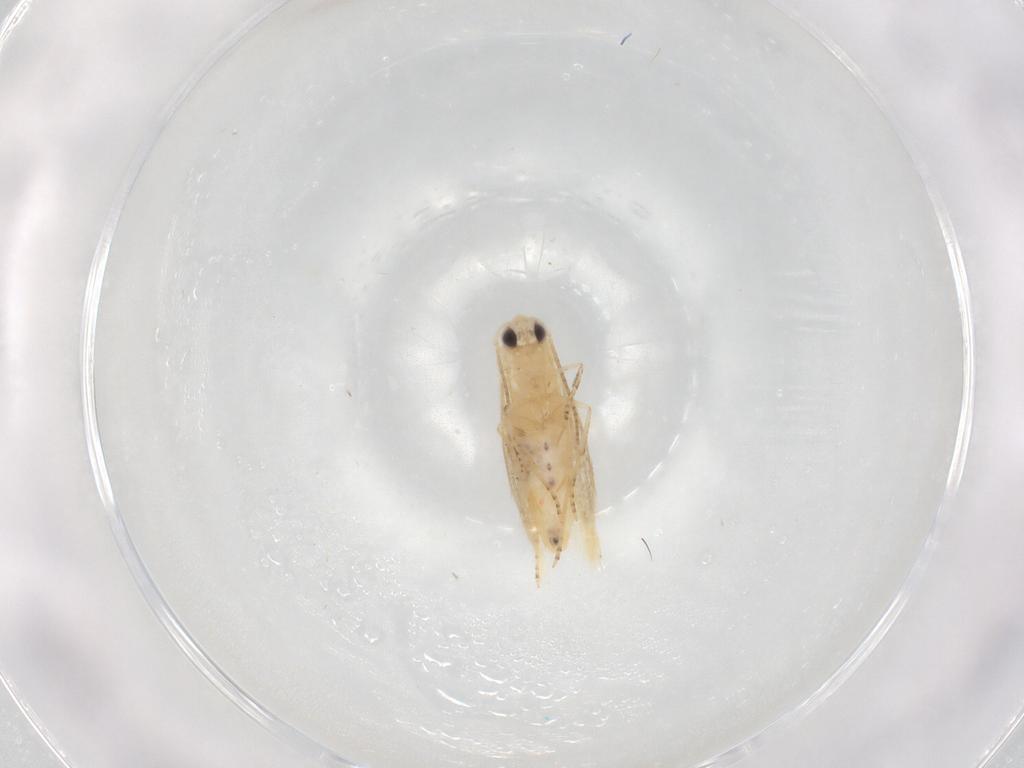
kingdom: Animalia
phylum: Arthropoda
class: Insecta
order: Lepidoptera
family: Depressariidae
